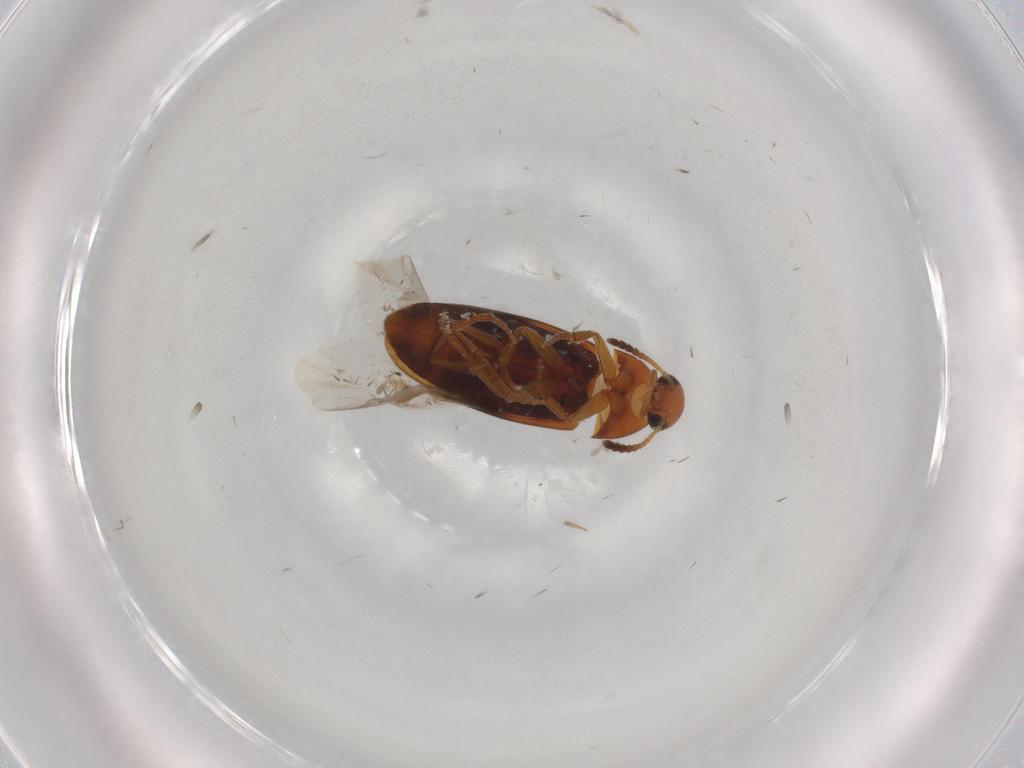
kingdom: Animalia
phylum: Arthropoda
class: Insecta
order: Coleoptera
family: Scraptiidae
